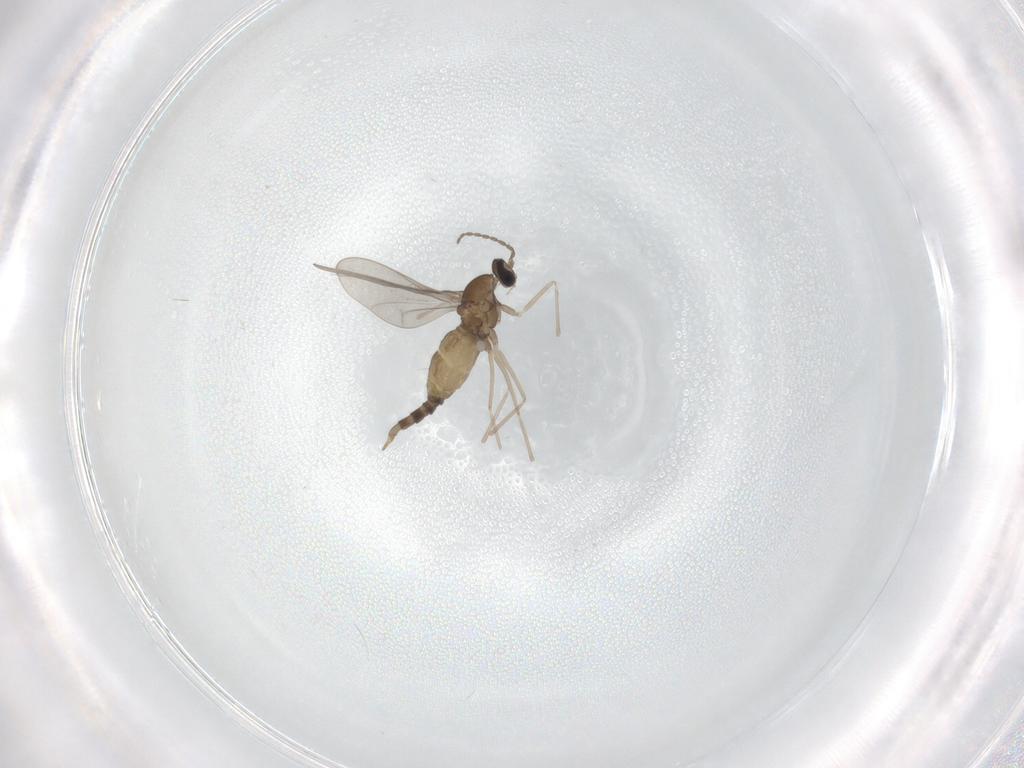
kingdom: Animalia
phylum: Arthropoda
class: Insecta
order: Diptera
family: Cecidomyiidae
